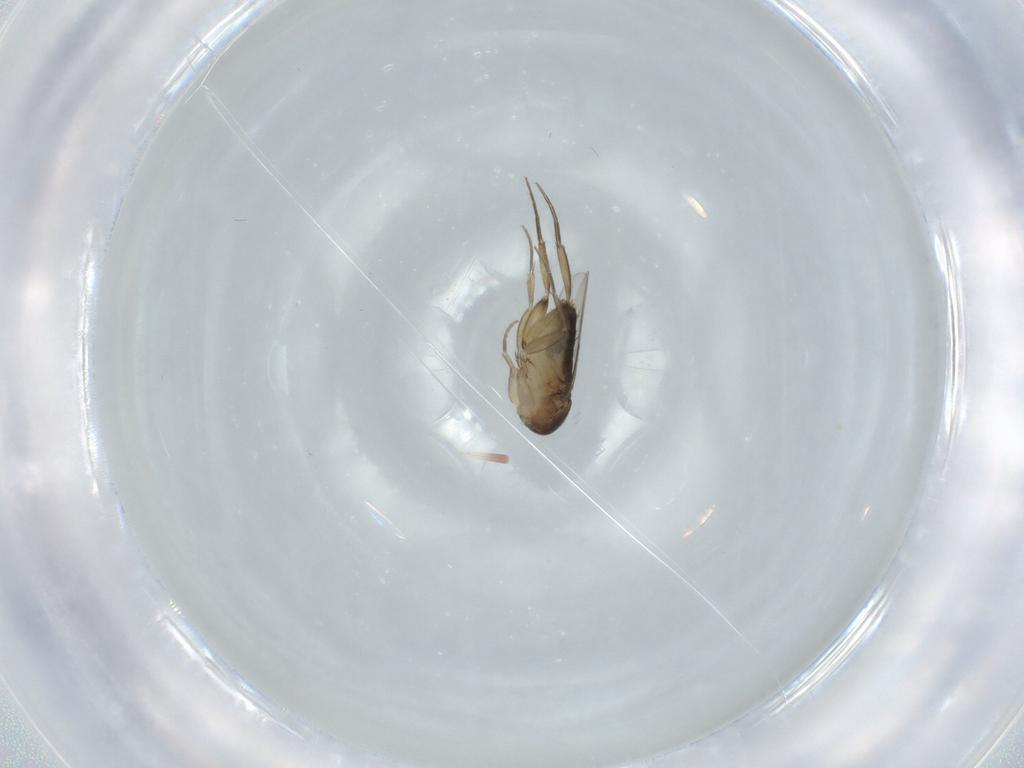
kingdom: Animalia
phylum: Arthropoda
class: Insecta
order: Diptera
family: Phoridae
